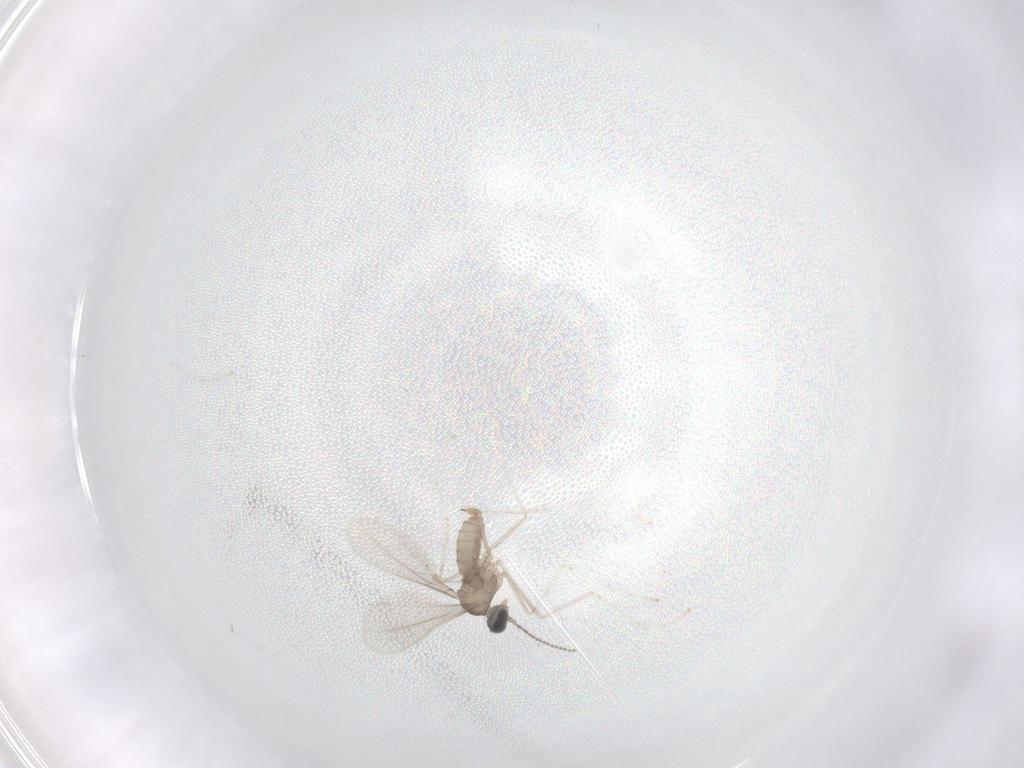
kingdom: Animalia
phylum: Arthropoda
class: Insecta
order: Diptera
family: Cecidomyiidae
